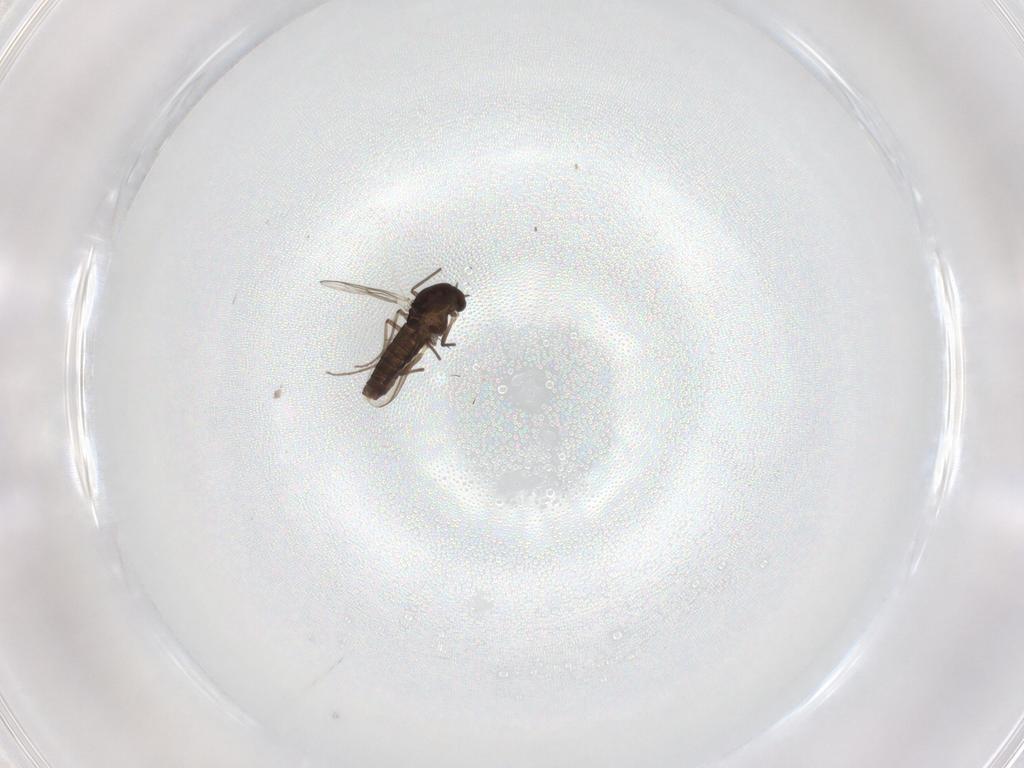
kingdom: Animalia
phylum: Arthropoda
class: Insecta
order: Diptera
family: Chironomidae
